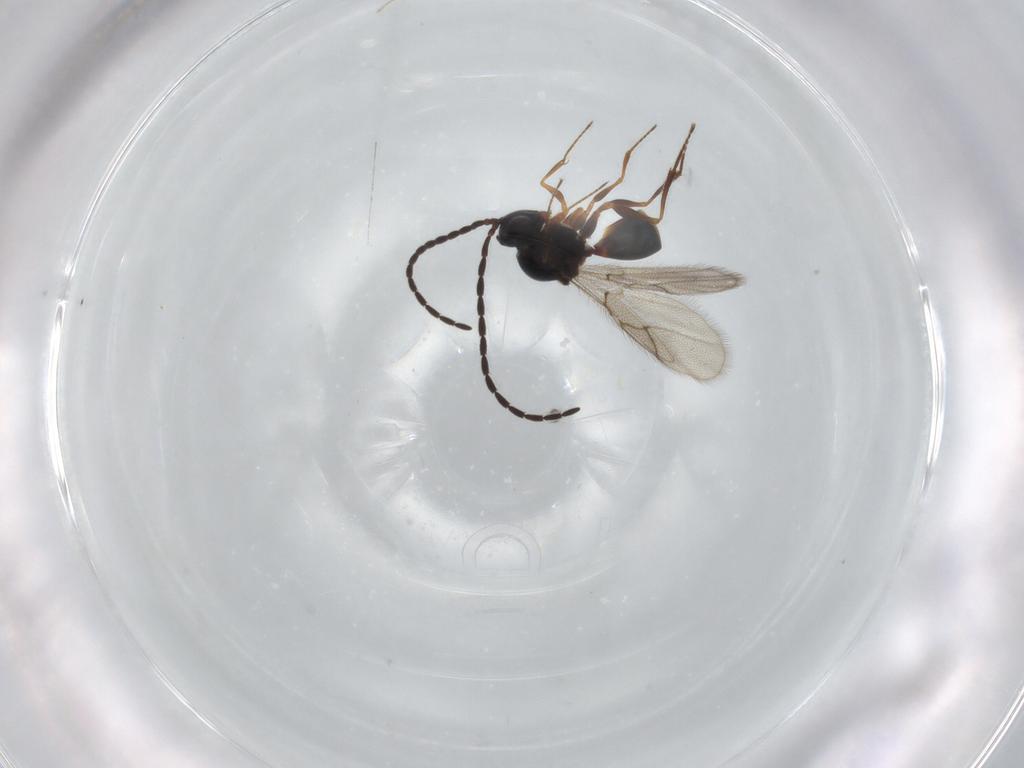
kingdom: Animalia
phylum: Arthropoda
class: Insecta
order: Hymenoptera
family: Figitidae
